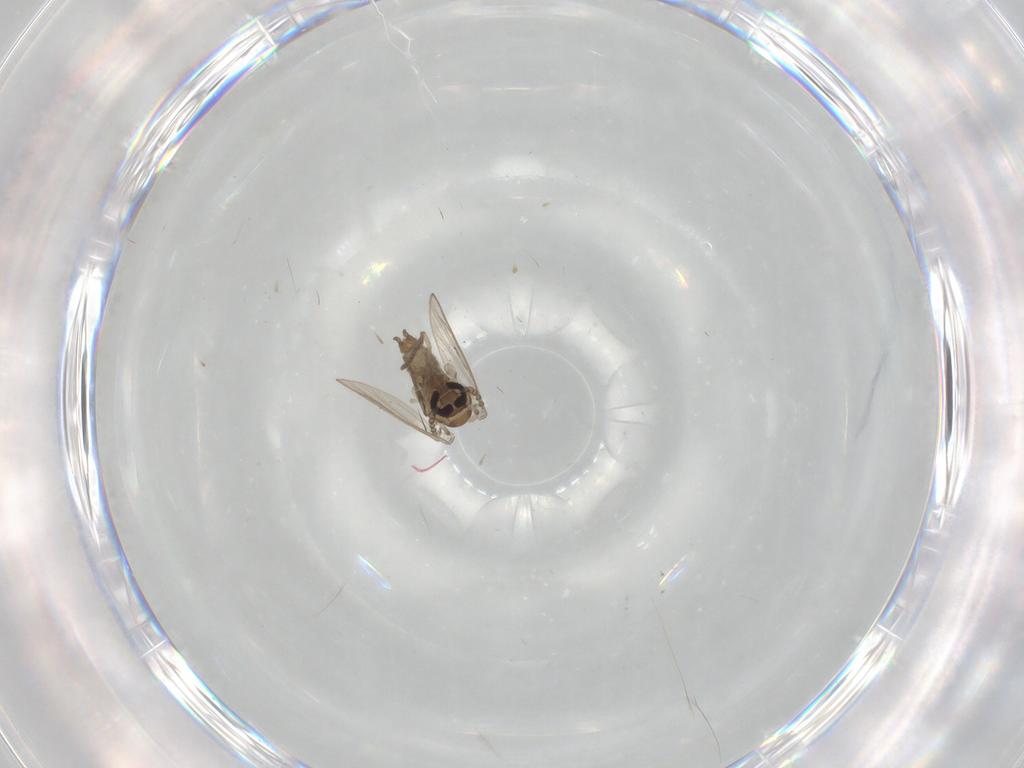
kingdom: Animalia
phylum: Arthropoda
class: Insecta
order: Diptera
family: Psychodidae
